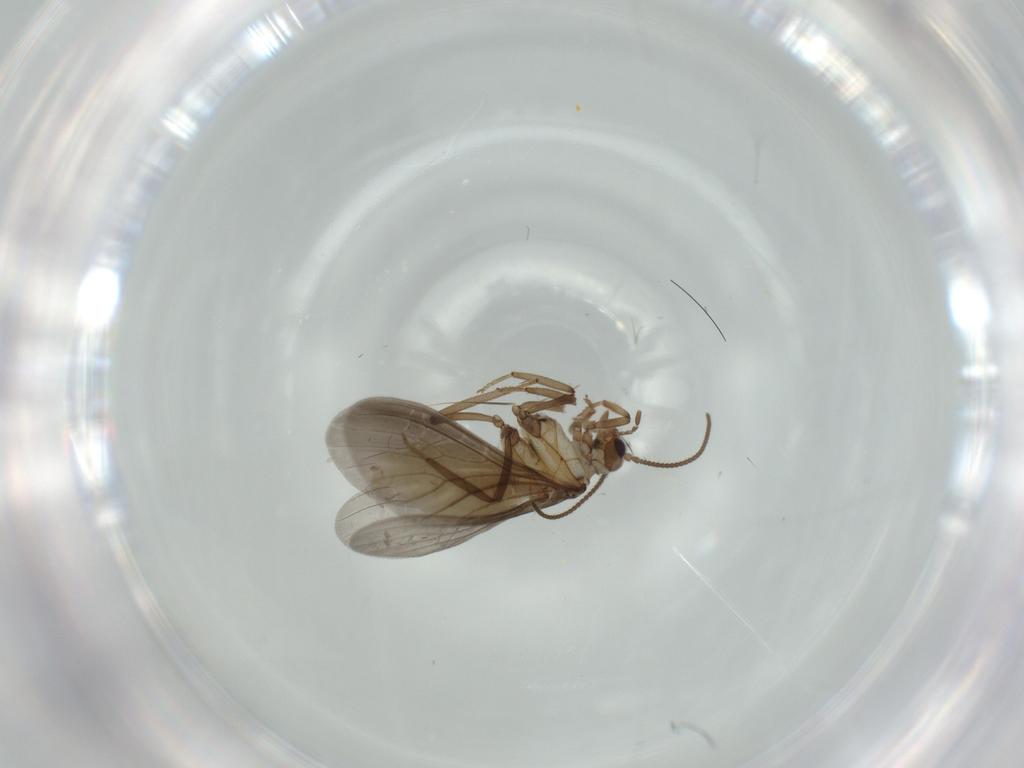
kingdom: Animalia
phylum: Arthropoda
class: Insecta
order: Neuroptera
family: Coniopterygidae
